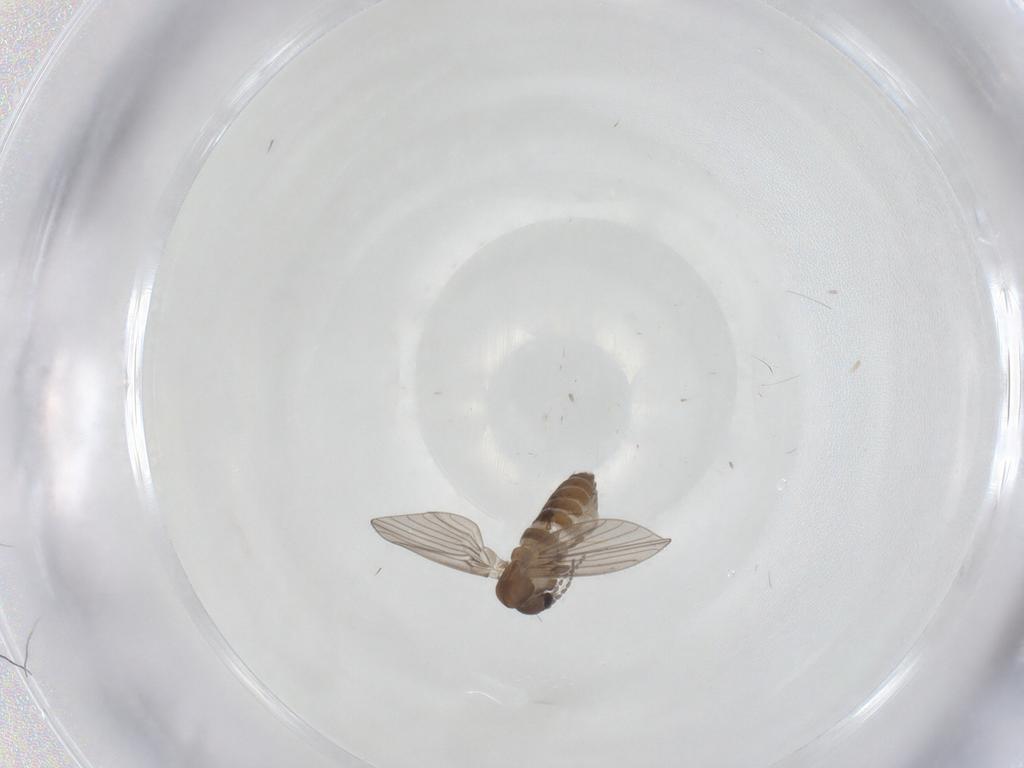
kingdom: Animalia
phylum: Arthropoda
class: Insecta
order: Diptera
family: Psychodidae
